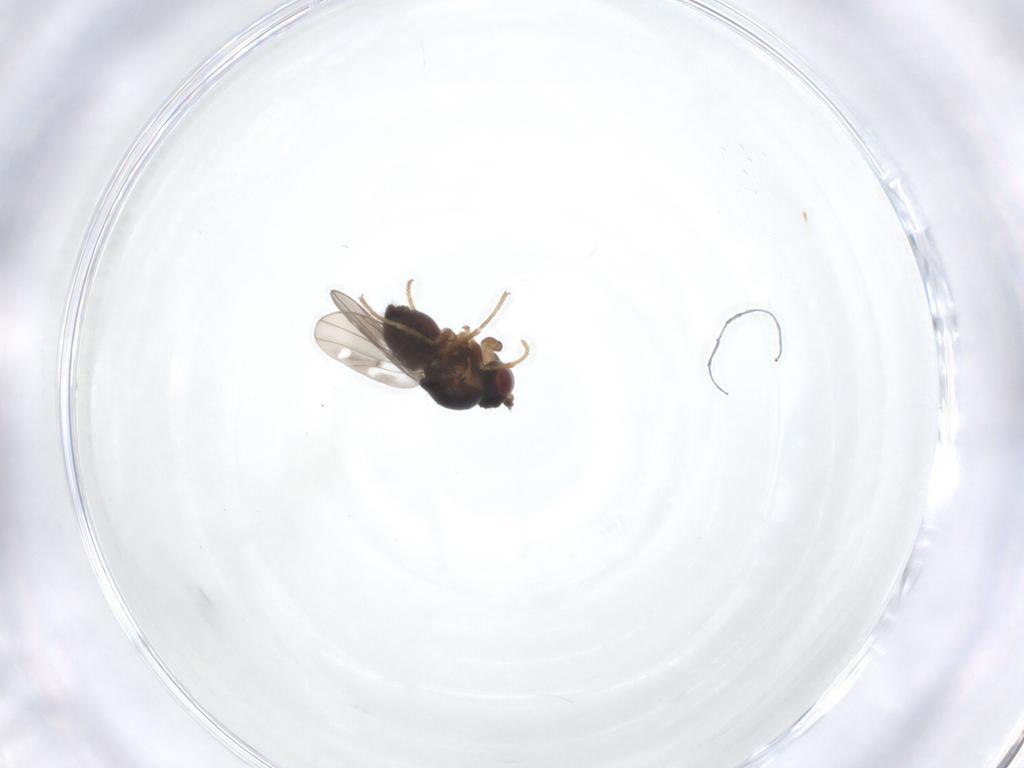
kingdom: Animalia
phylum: Arthropoda
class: Insecta
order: Diptera
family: Ephydridae
